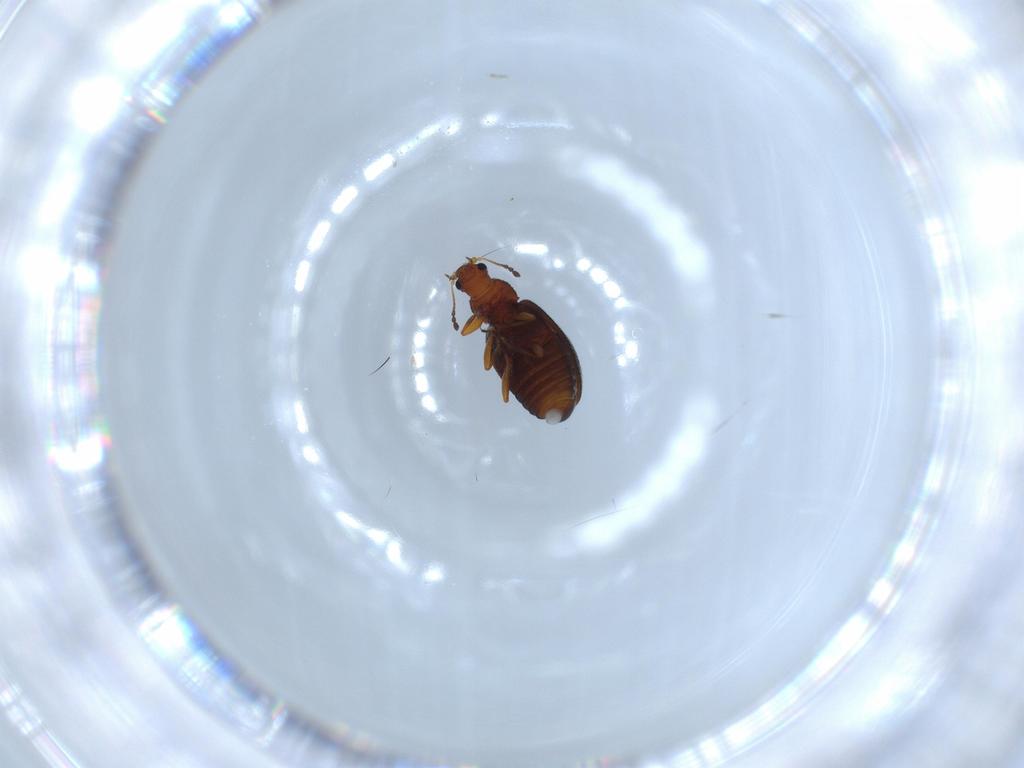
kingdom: Animalia
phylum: Arthropoda
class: Insecta
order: Coleoptera
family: Latridiidae
